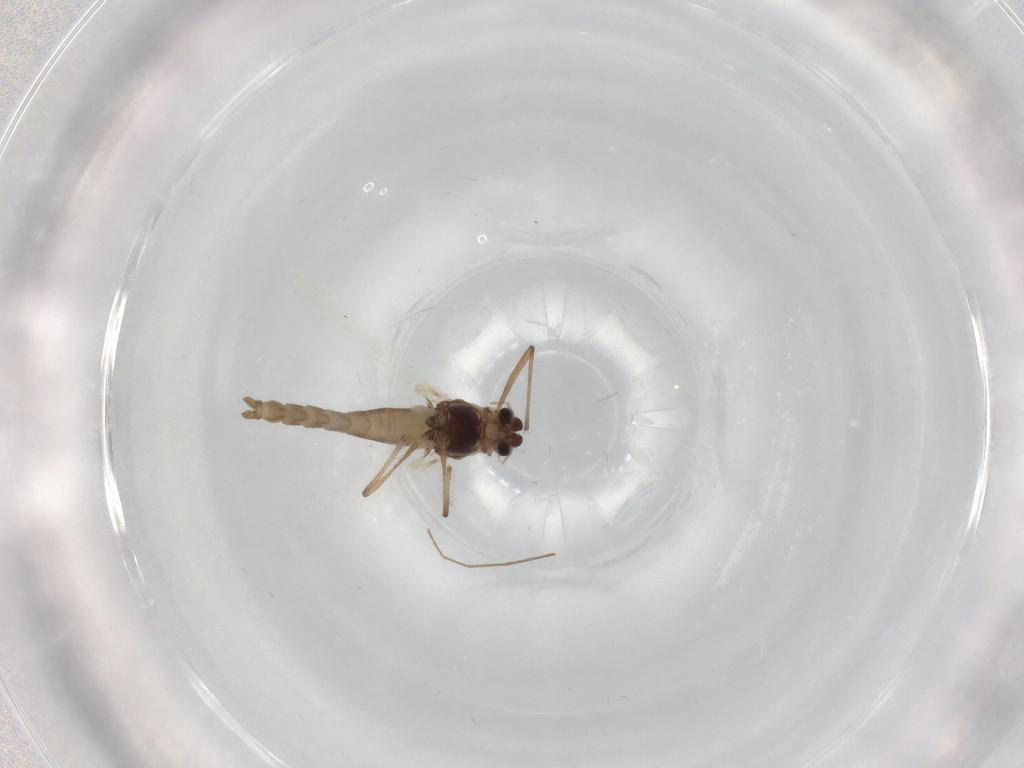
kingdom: Animalia
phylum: Arthropoda
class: Insecta
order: Diptera
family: Chironomidae
